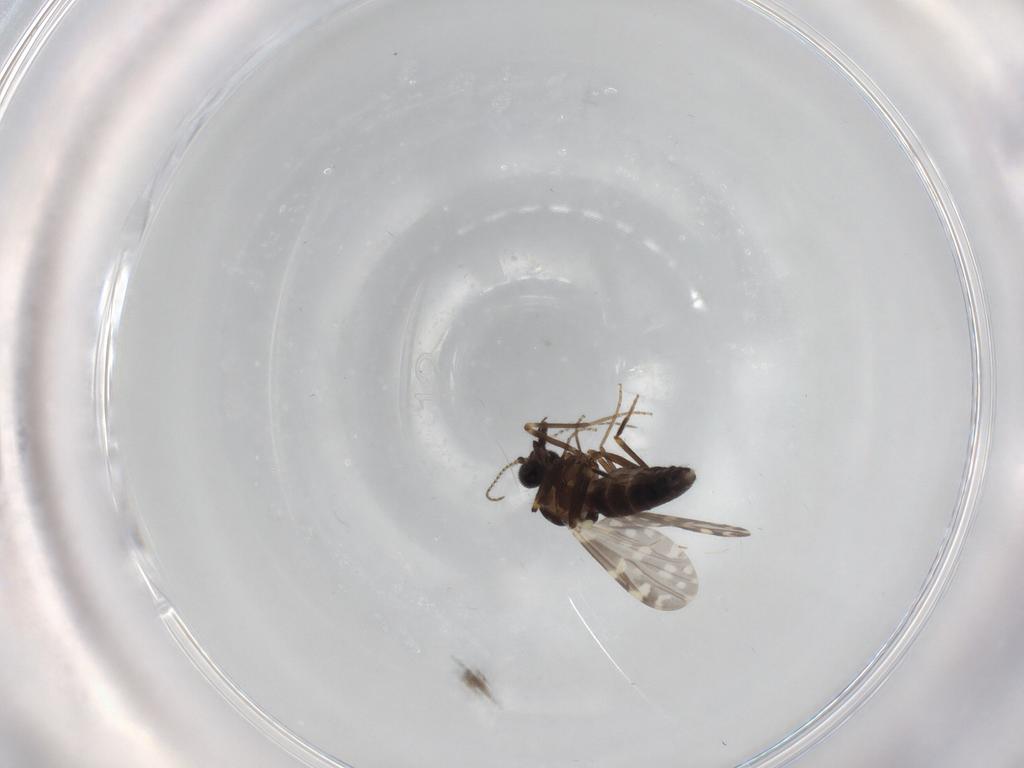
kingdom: Animalia
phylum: Arthropoda
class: Insecta
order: Diptera
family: Ceratopogonidae
